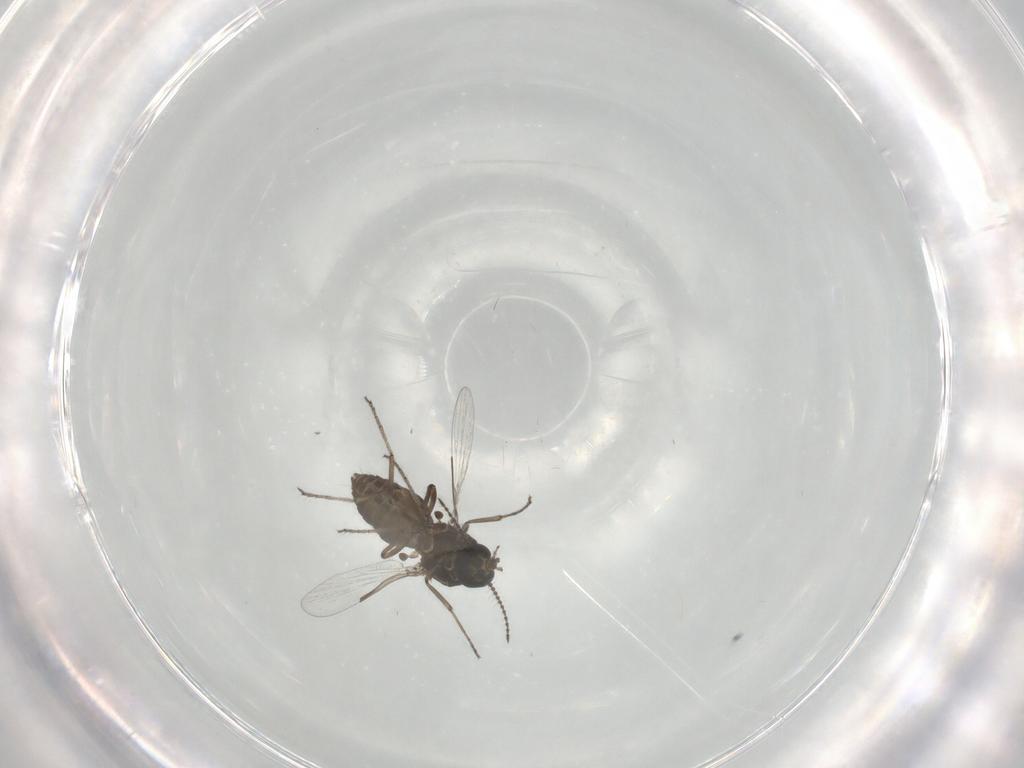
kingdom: Animalia
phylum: Arthropoda
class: Insecta
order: Diptera
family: Ceratopogonidae
